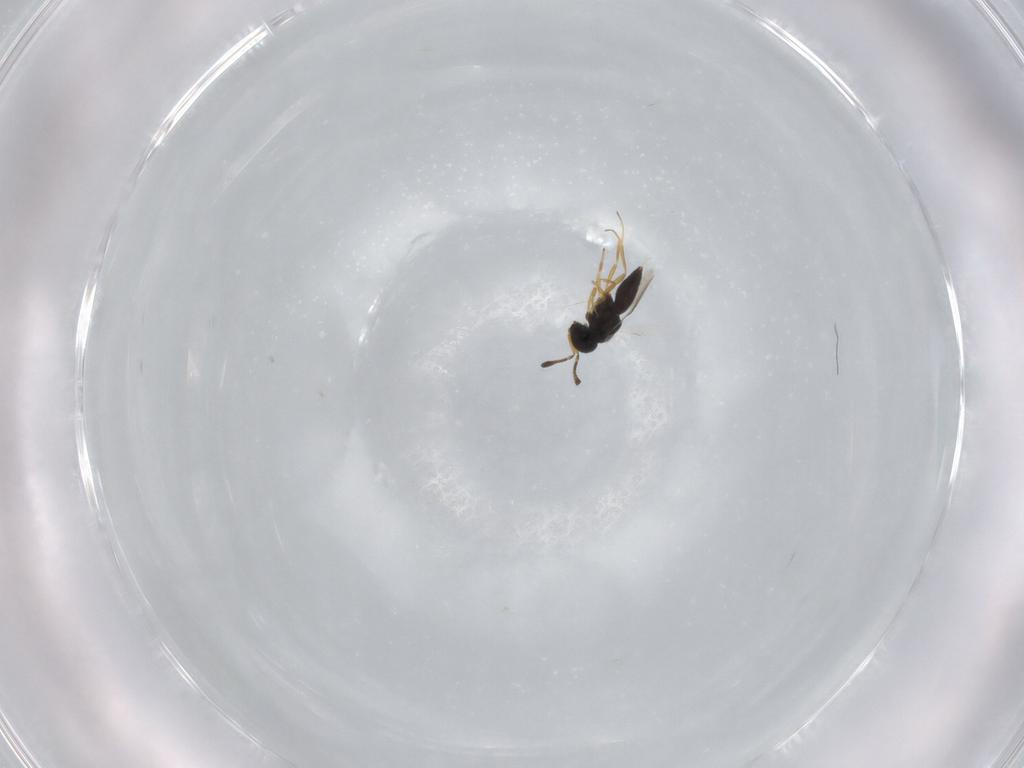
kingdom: Animalia
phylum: Arthropoda
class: Insecta
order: Hymenoptera
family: Scelionidae
